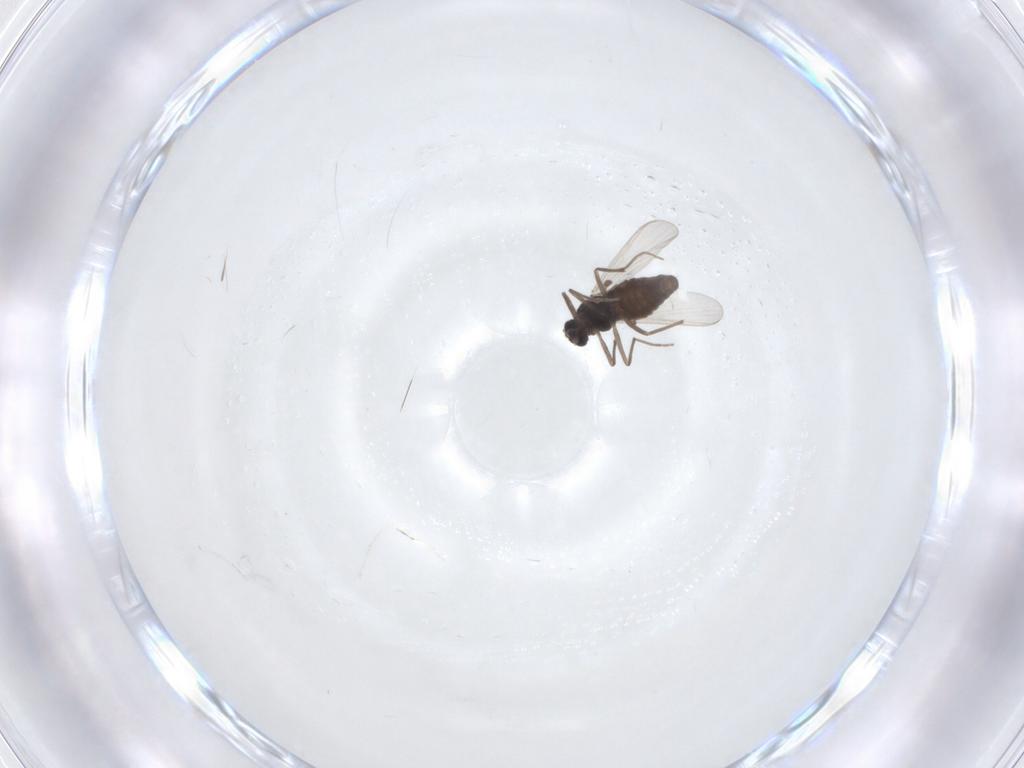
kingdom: Animalia
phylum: Arthropoda
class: Insecta
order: Diptera
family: Chironomidae
